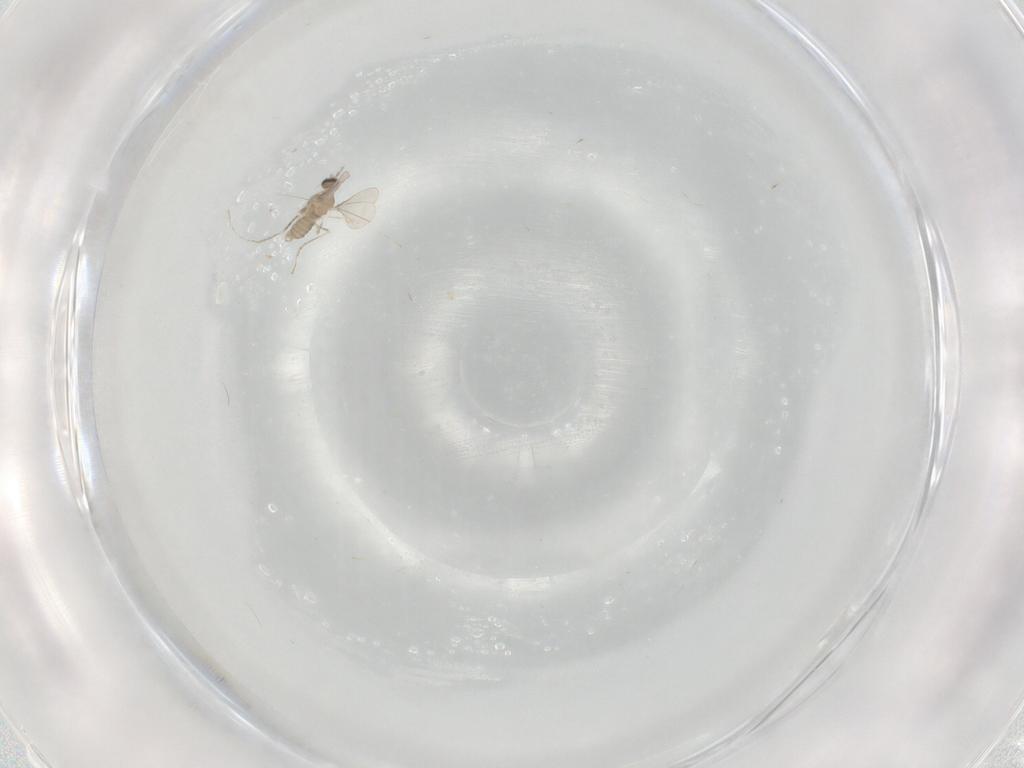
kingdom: Animalia
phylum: Arthropoda
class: Insecta
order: Diptera
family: Cecidomyiidae
